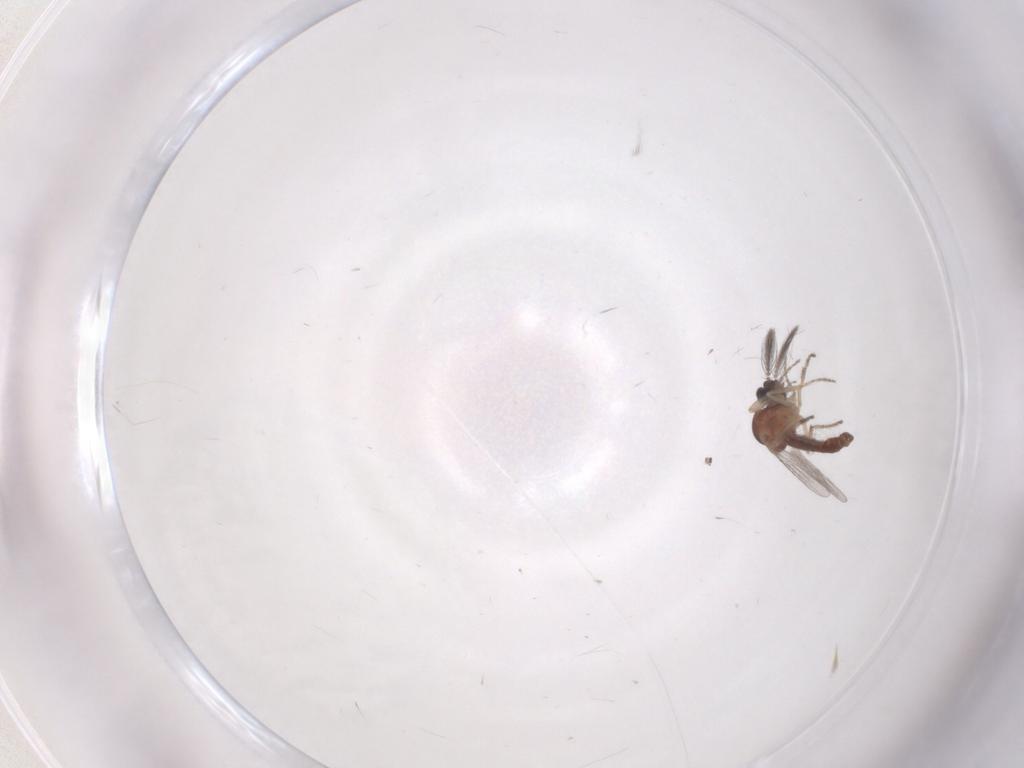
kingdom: Animalia
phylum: Arthropoda
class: Insecta
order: Diptera
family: Ceratopogonidae
